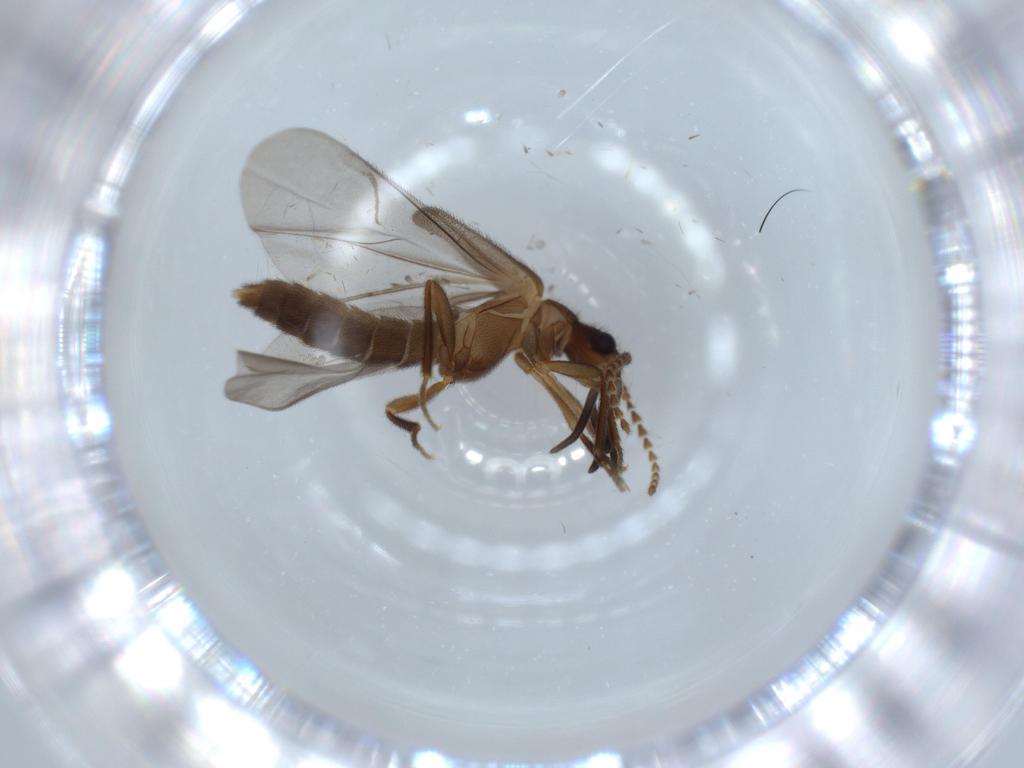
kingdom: Animalia
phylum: Arthropoda
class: Insecta
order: Coleoptera
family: Chrysomelidae
